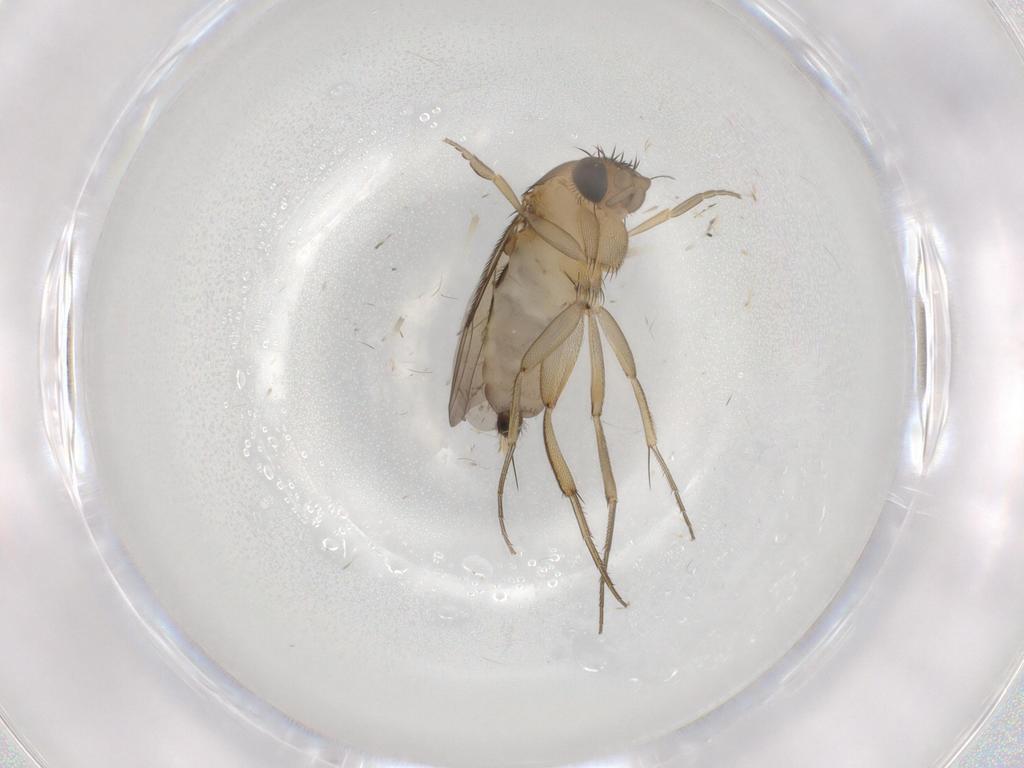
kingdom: Animalia
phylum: Arthropoda
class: Insecta
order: Diptera
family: Phoridae
